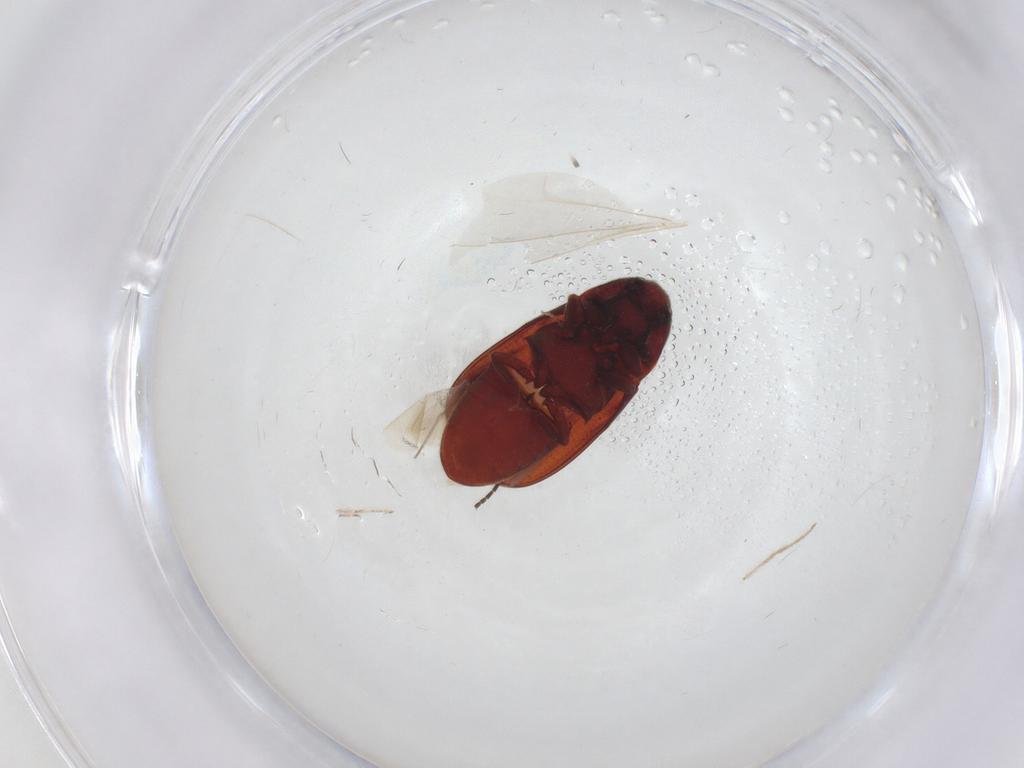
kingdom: Animalia
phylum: Arthropoda
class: Insecta
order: Coleoptera
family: Throscidae
